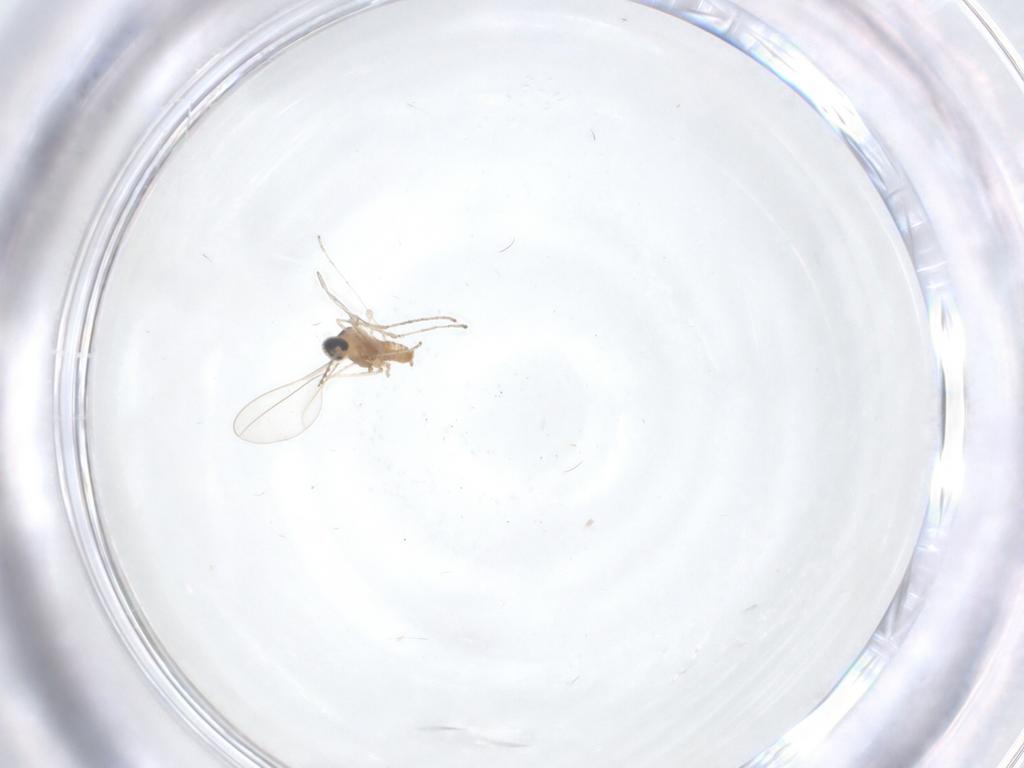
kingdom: Animalia
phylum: Arthropoda
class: Insecta
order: Diptera
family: Cecidomyiidae
